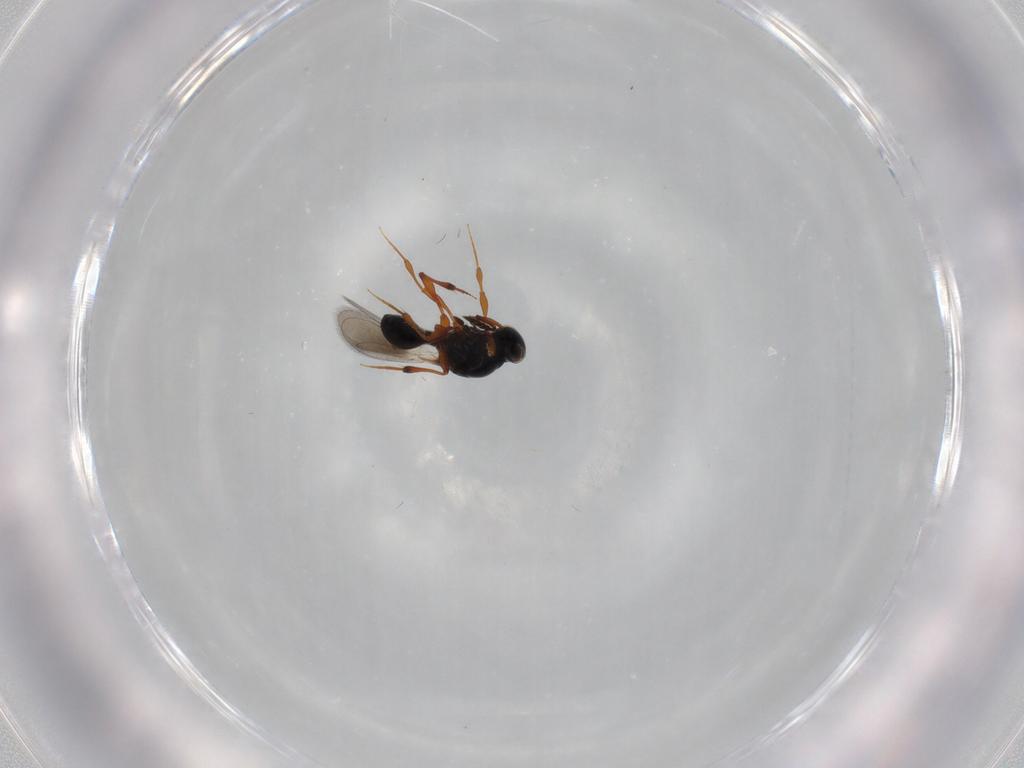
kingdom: Animalia
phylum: Arthropoda
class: Insecta
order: Hymenoptera
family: Platygastridae
